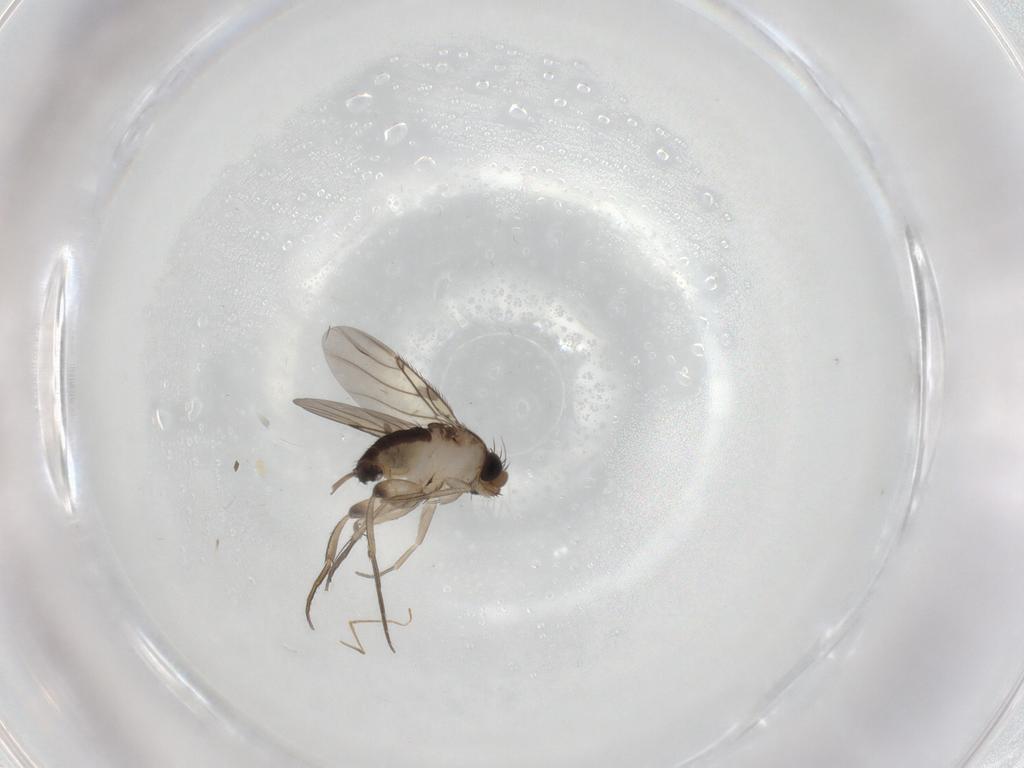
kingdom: Animalia
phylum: Arthropoda
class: Insecta
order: Diptera
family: Phoridae
